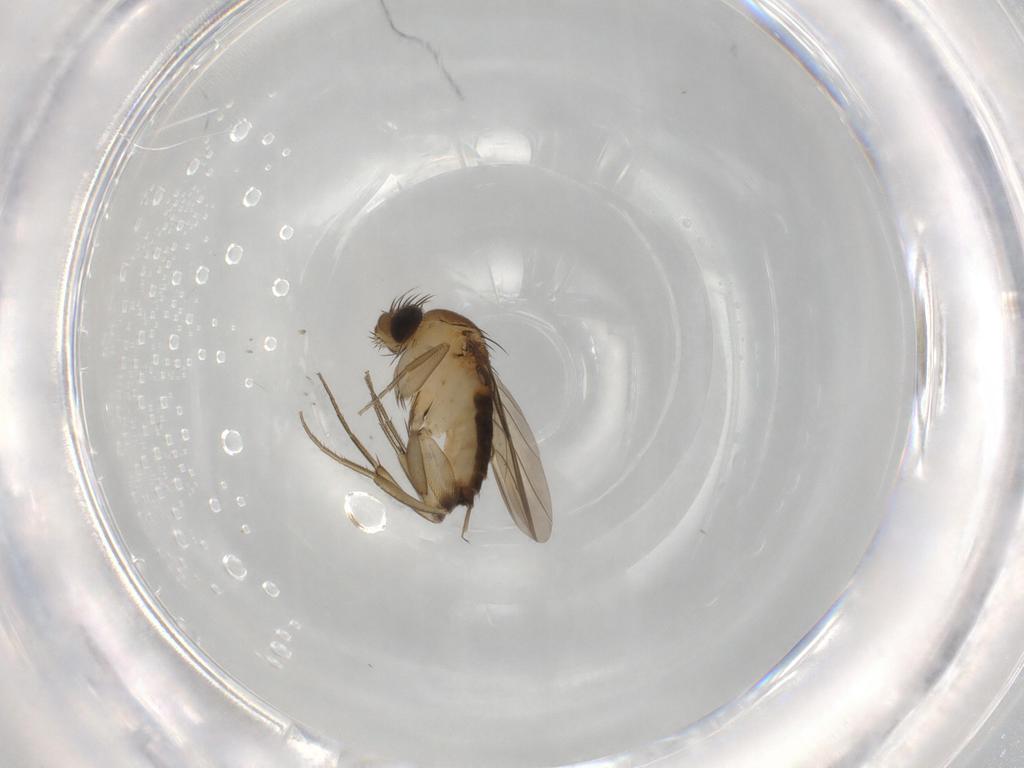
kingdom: Animalia
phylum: Arthropoda
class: Insecta
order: Diptera
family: Phoridae
